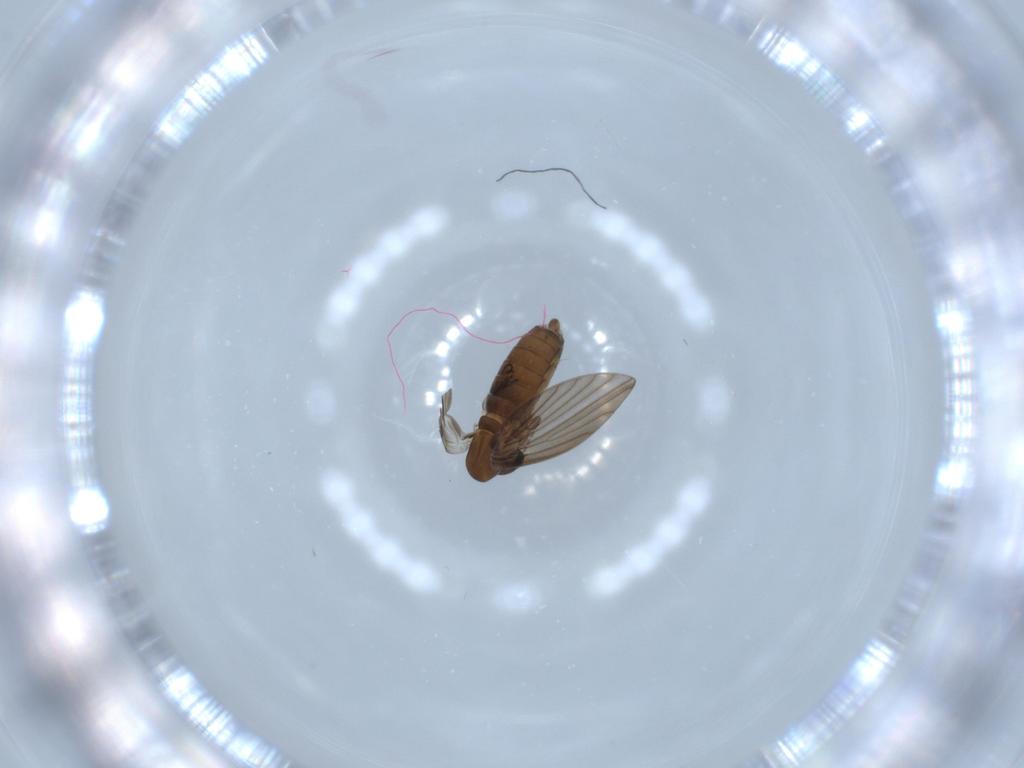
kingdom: Animalia
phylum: Arthropoda
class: Insecta
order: Diptera
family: Psychodidae
